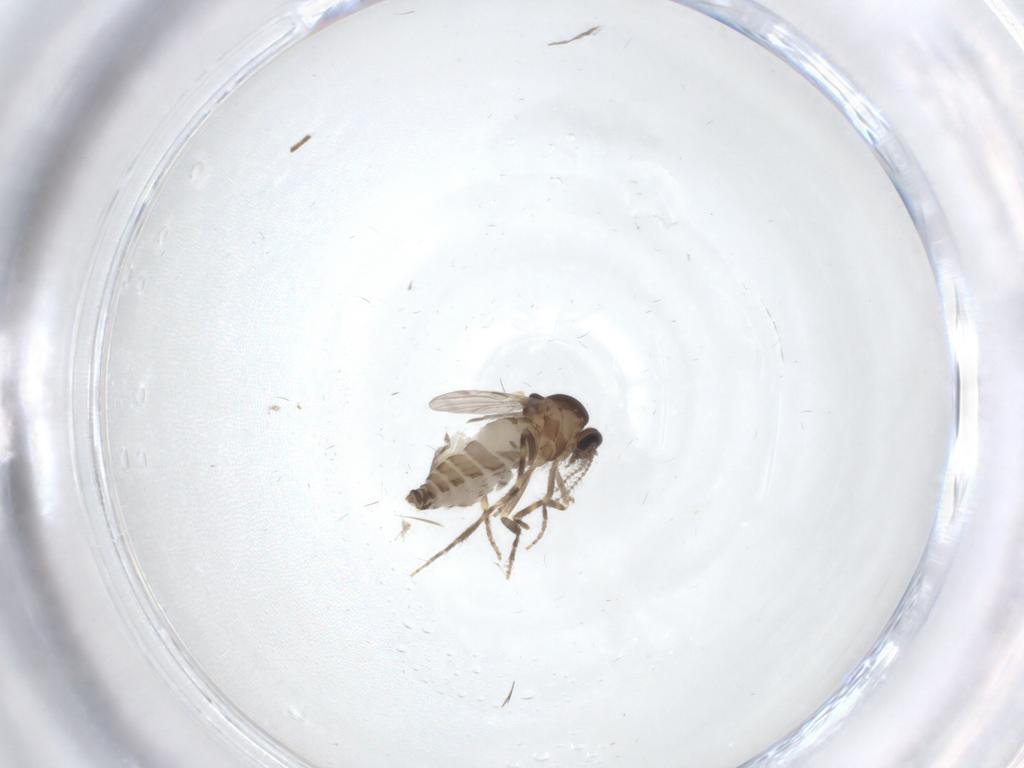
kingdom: Animalia
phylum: Arthropoda
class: Insecta
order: Diptera
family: Ceratopogonidae
